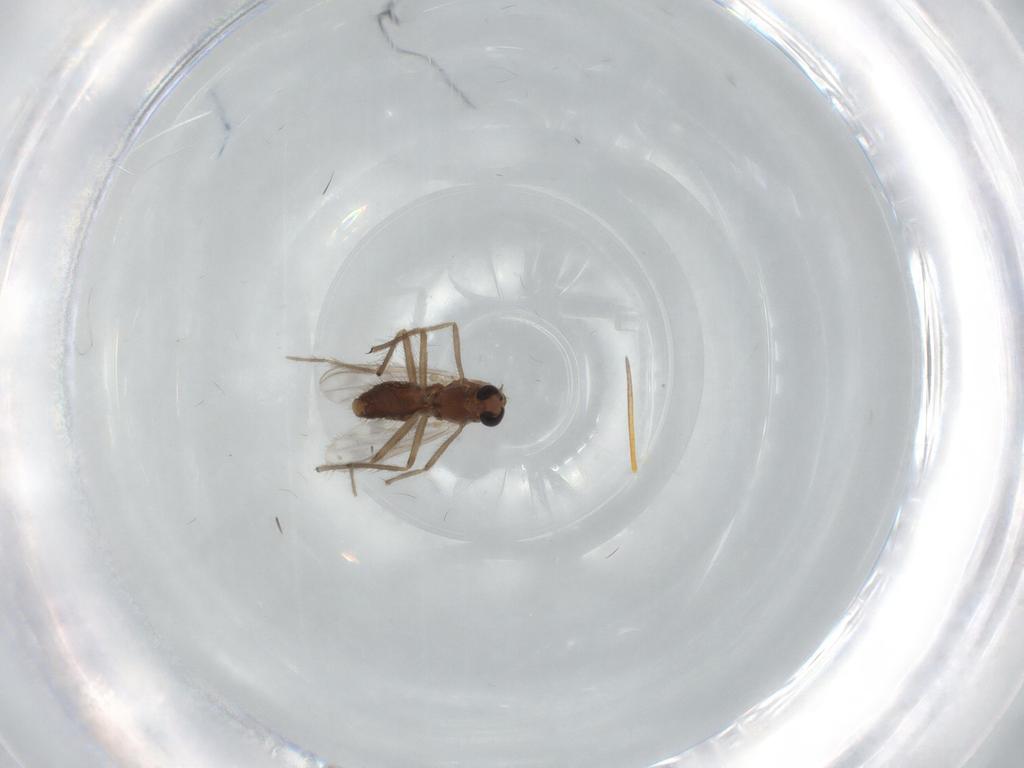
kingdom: Animalia
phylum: Arthropoda
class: Insecta
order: Diptera
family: Chironomidae
